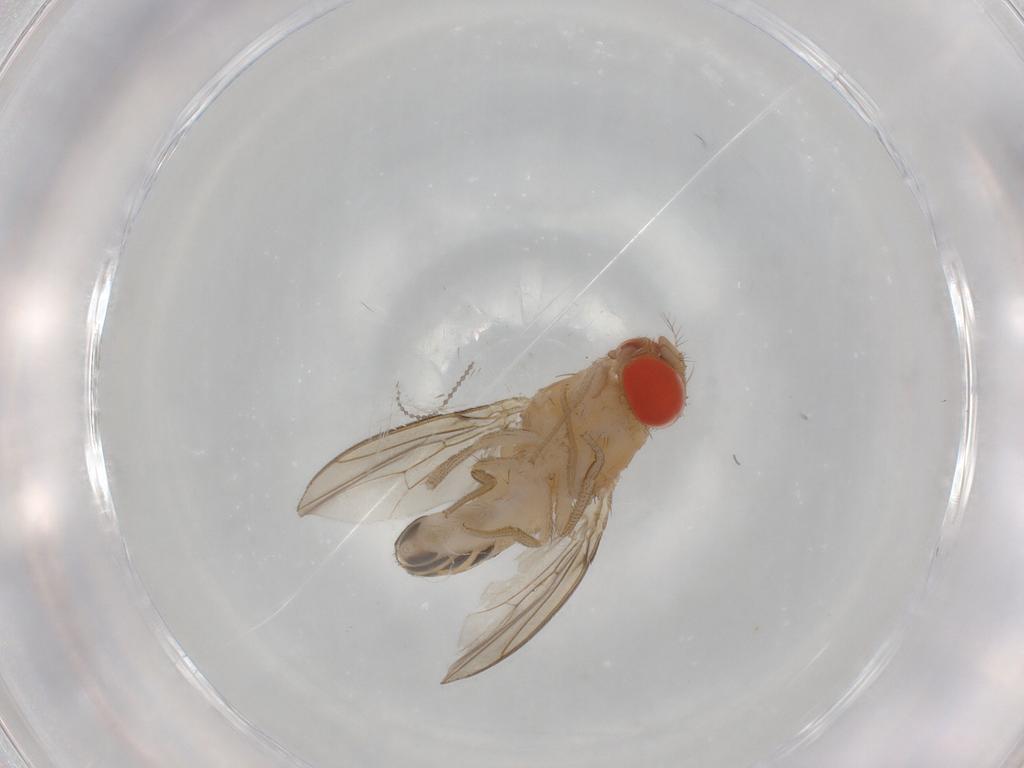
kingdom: Animalia
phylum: Arthropoda
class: Insecta
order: Diptera
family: Drosophilidae
